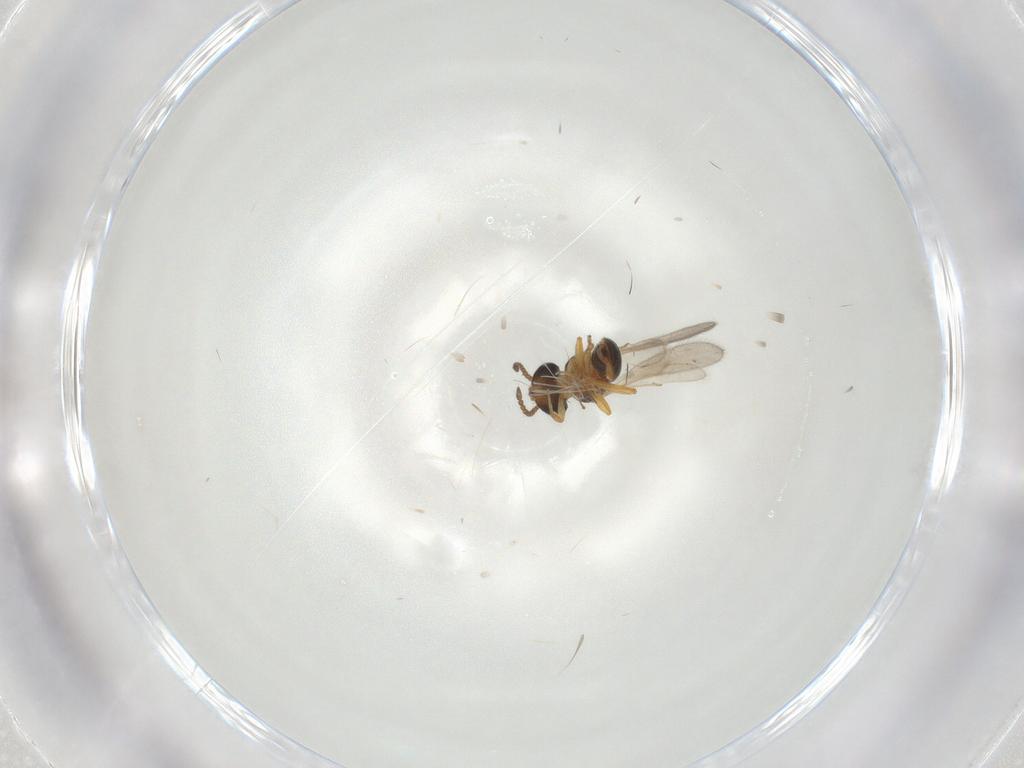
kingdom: Animalia
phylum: Arthropoda
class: Insecta
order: Hymenoptera
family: Scelionidae
